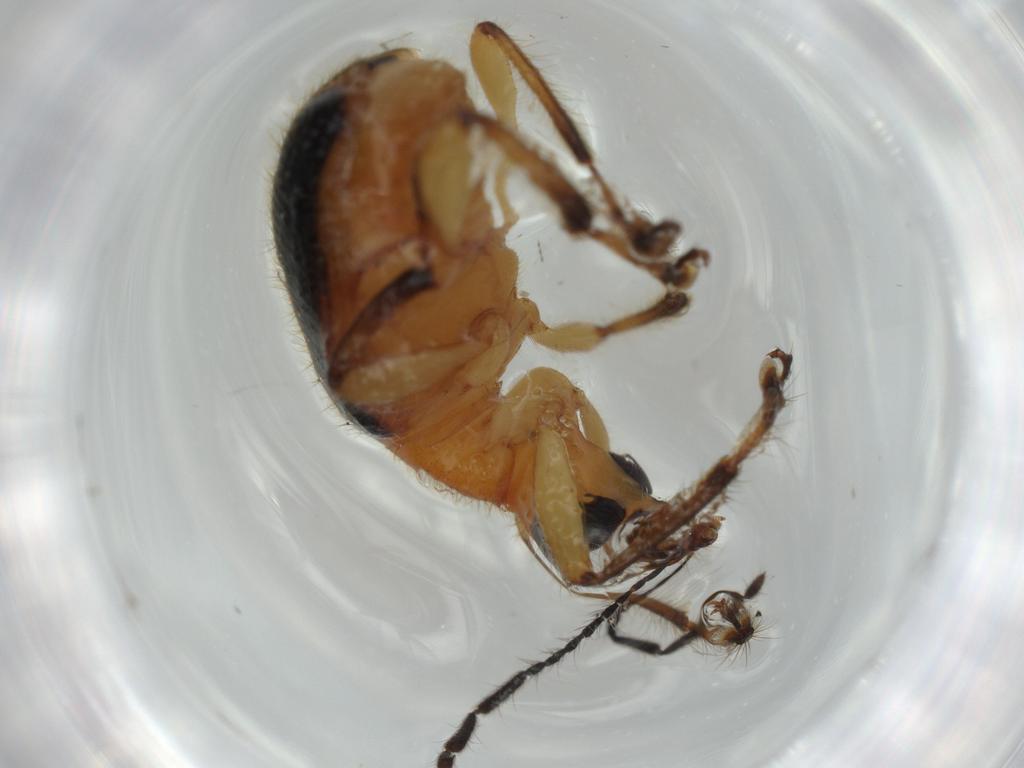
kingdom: Animalia
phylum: Arthropoda
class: Insecta
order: Coleoptera
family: Attelabidae
